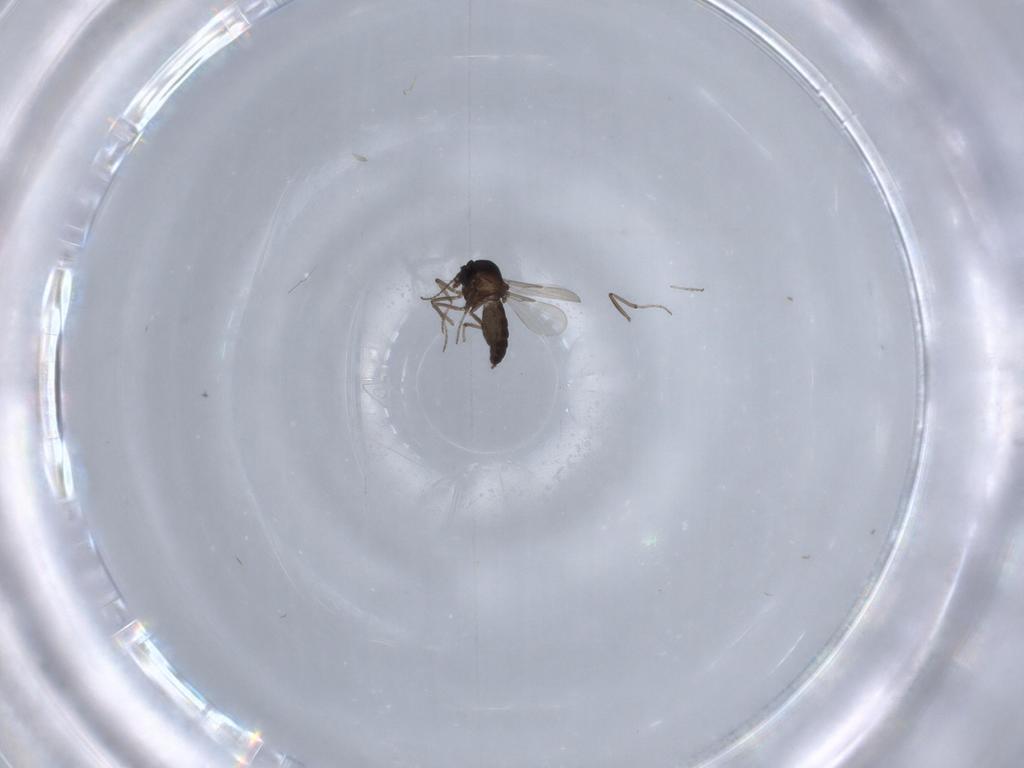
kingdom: Animalia
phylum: Arthropoda
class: Insecta
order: Diptera
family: Ceratopogonidae
